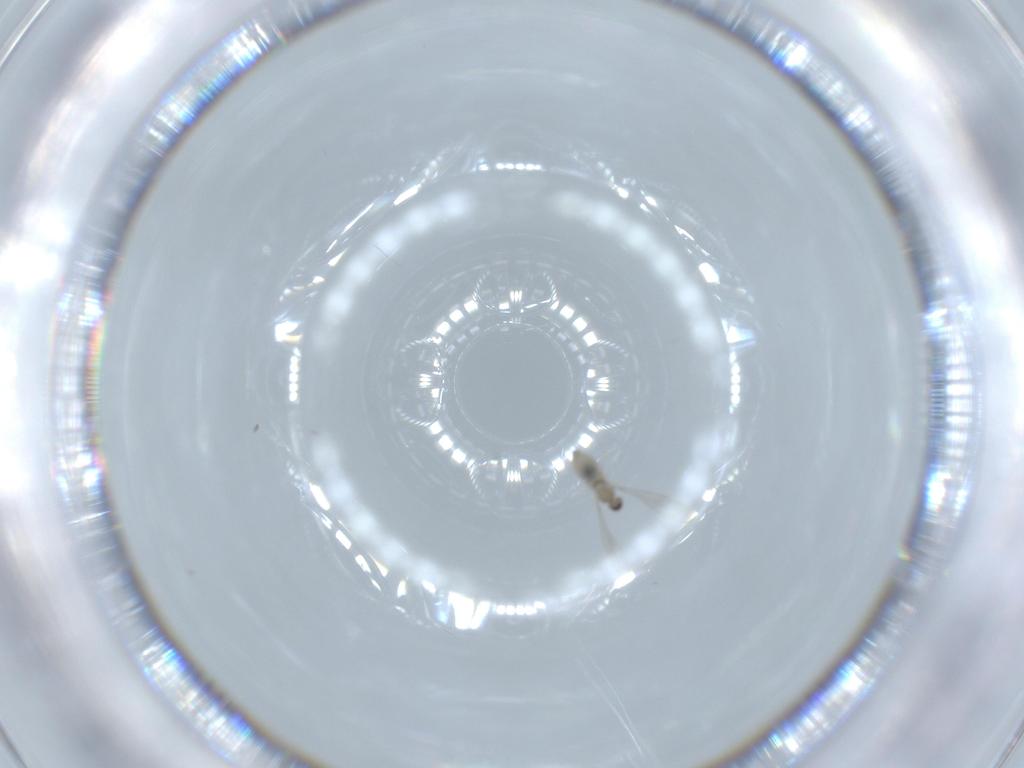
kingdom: Animalia
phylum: Arthropoda
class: Insecta
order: Diptera
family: Cecidomyiidae
